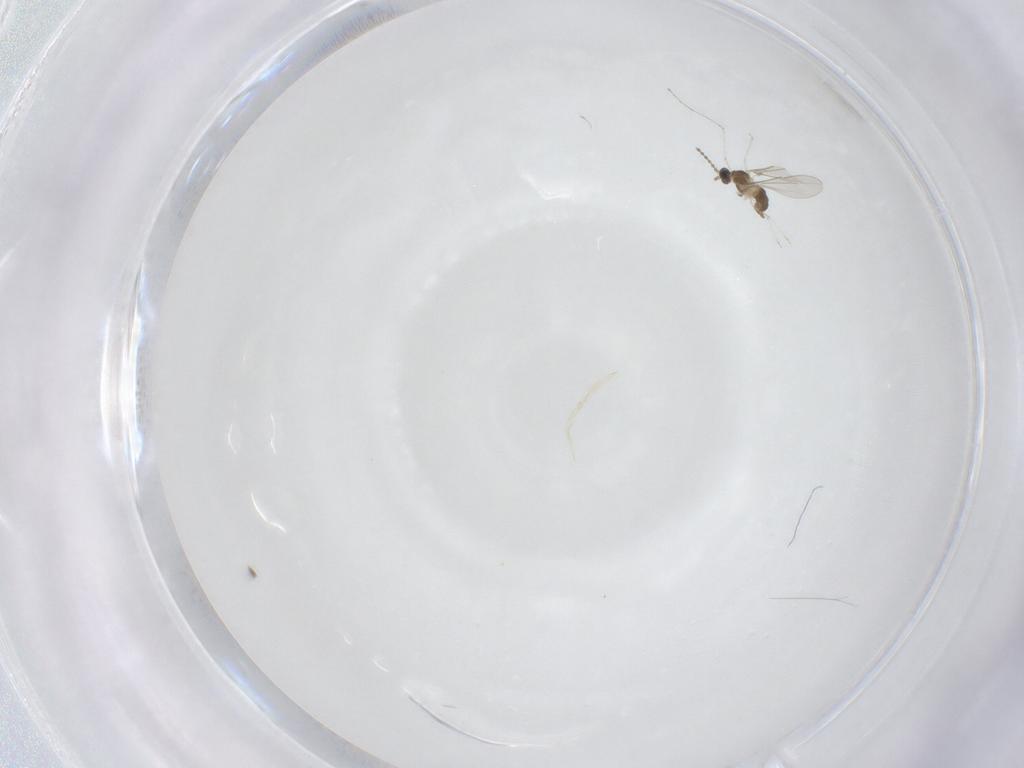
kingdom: Animalia
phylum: Arthropoda
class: Insecta
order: Diptera
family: Cecidomyiidae
